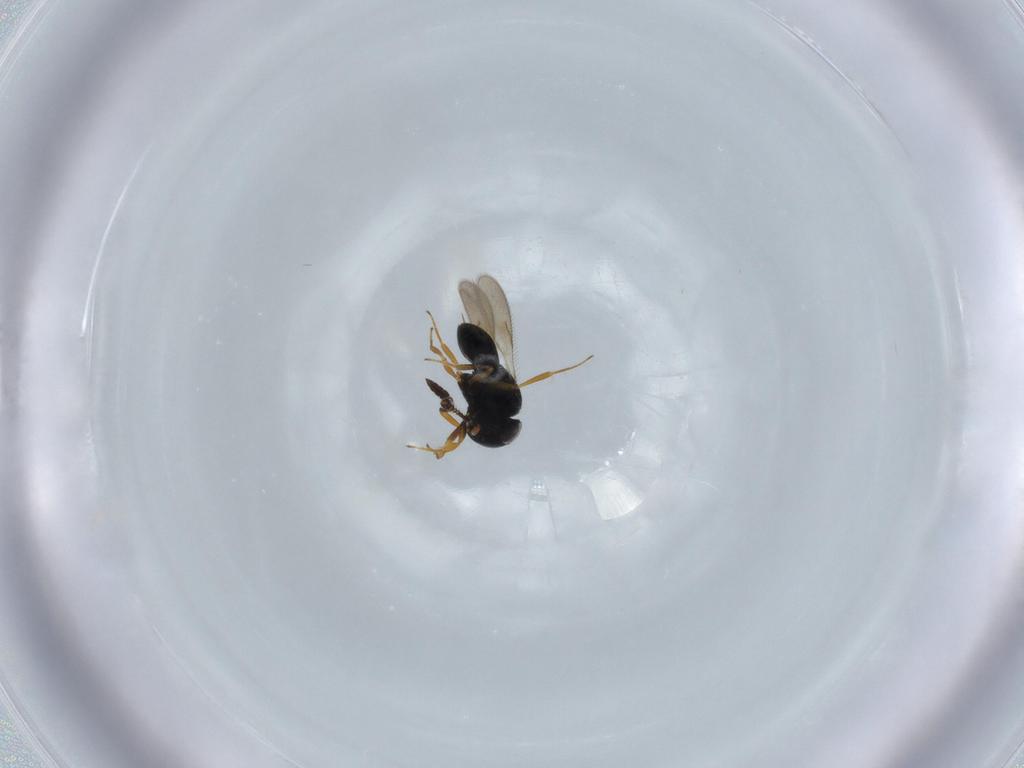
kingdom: Animalia
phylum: Arthropoda
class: Insecta
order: Hymenoptera
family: Scelionidae
